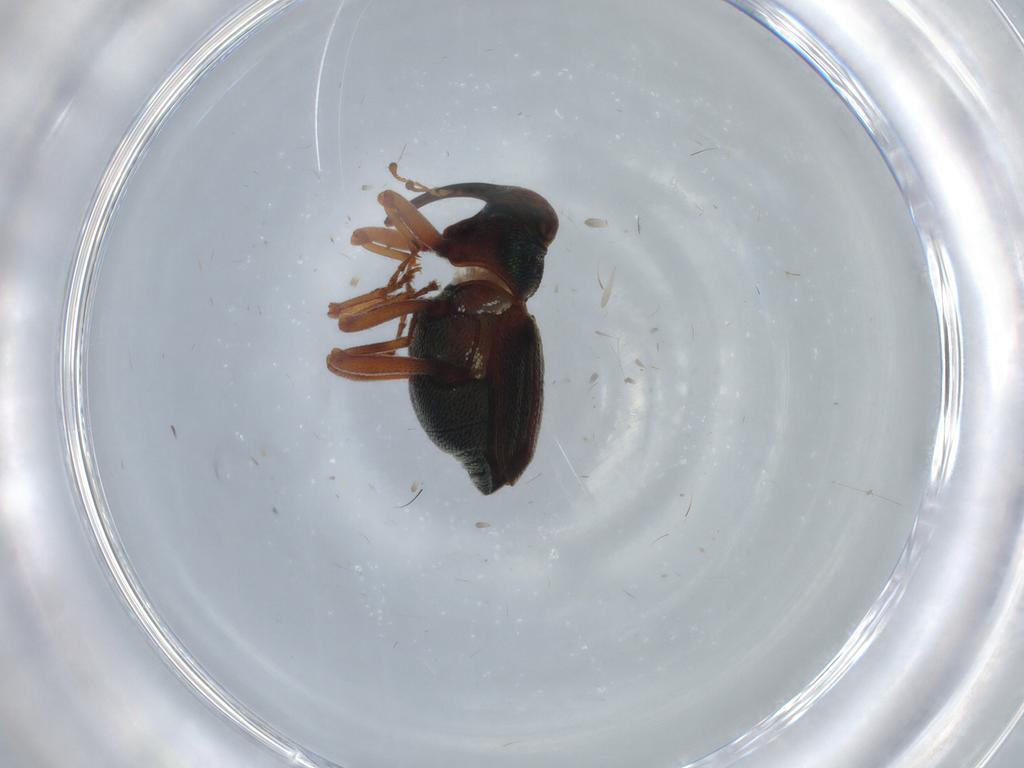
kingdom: Animalia
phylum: Arthropoda
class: Insecta
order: Coleoptera
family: Curculionidae
